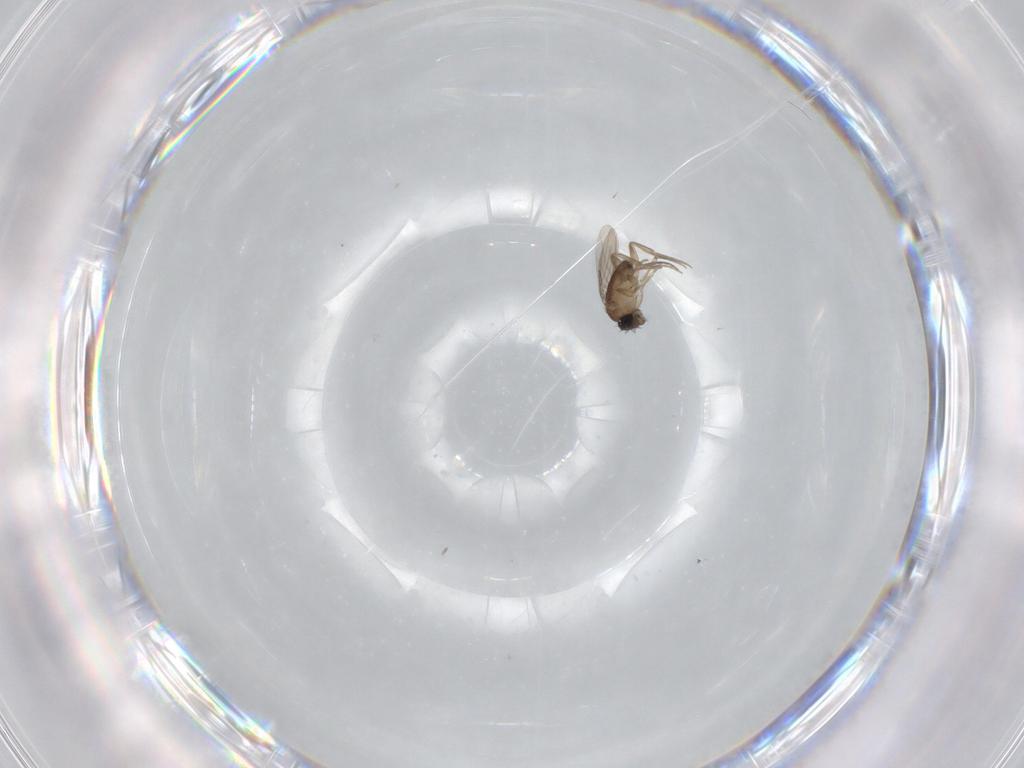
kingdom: Animalia
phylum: Arthropoda
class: Insecta
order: Diptera
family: Phoridae
